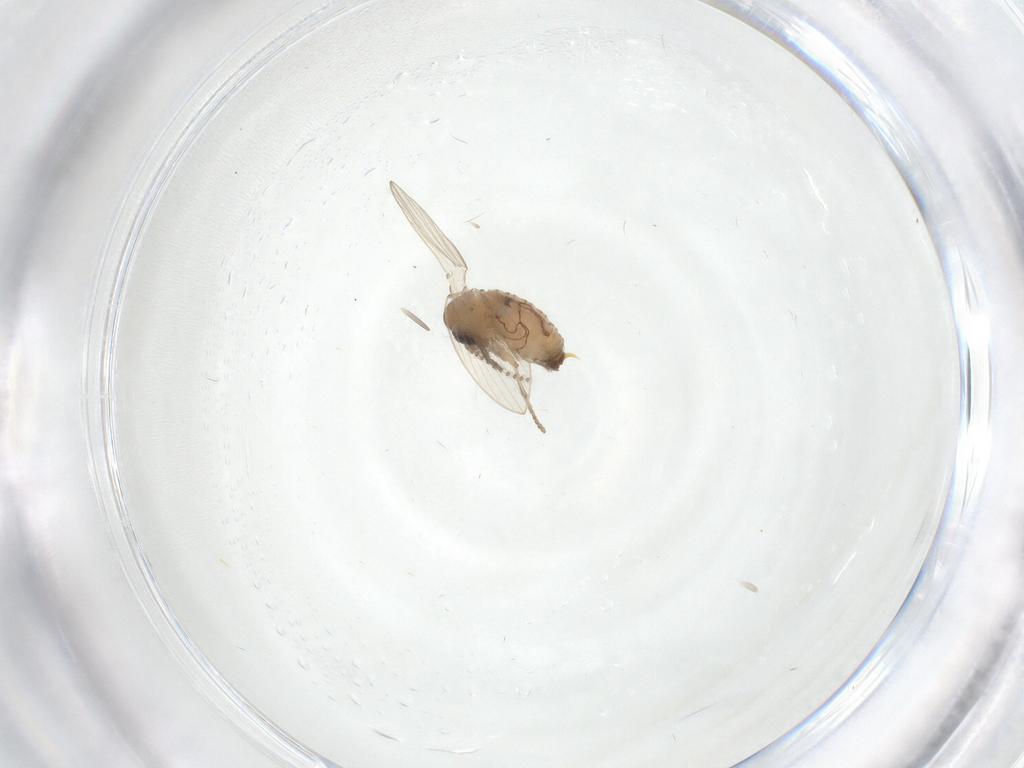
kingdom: Animalia
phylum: Arthropoda
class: Insecta
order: Diptera
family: Psychodidae
